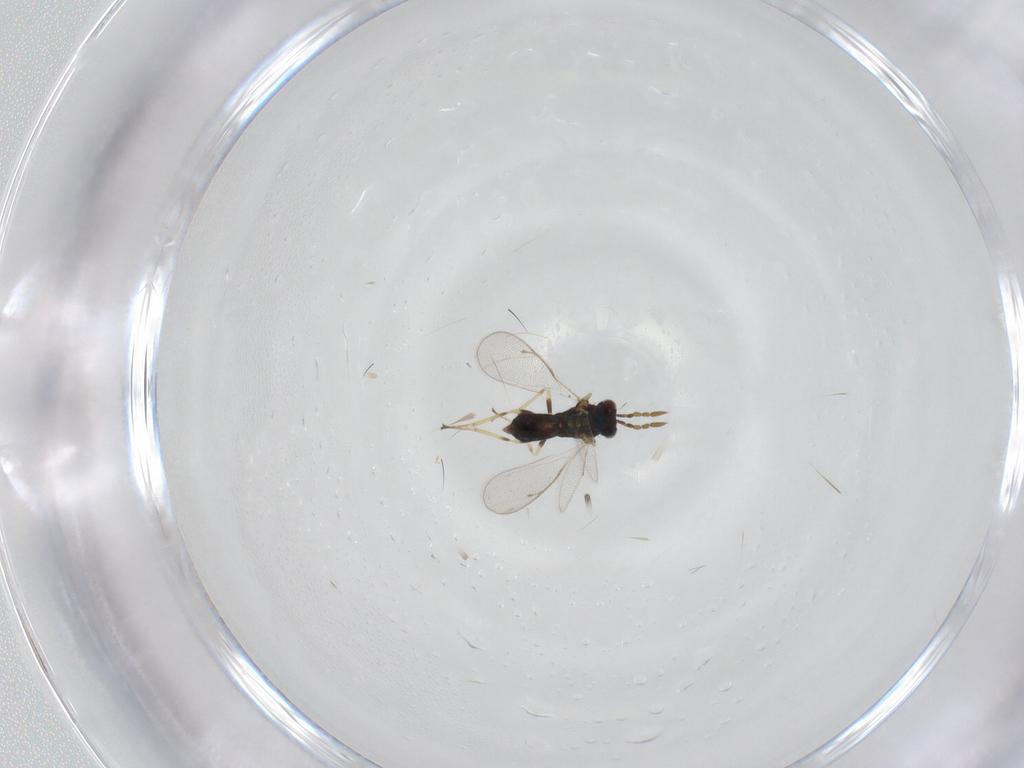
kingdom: Animalia
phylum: Arthropoda
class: Insecta
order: Hymenoptera
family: Eulophidae
